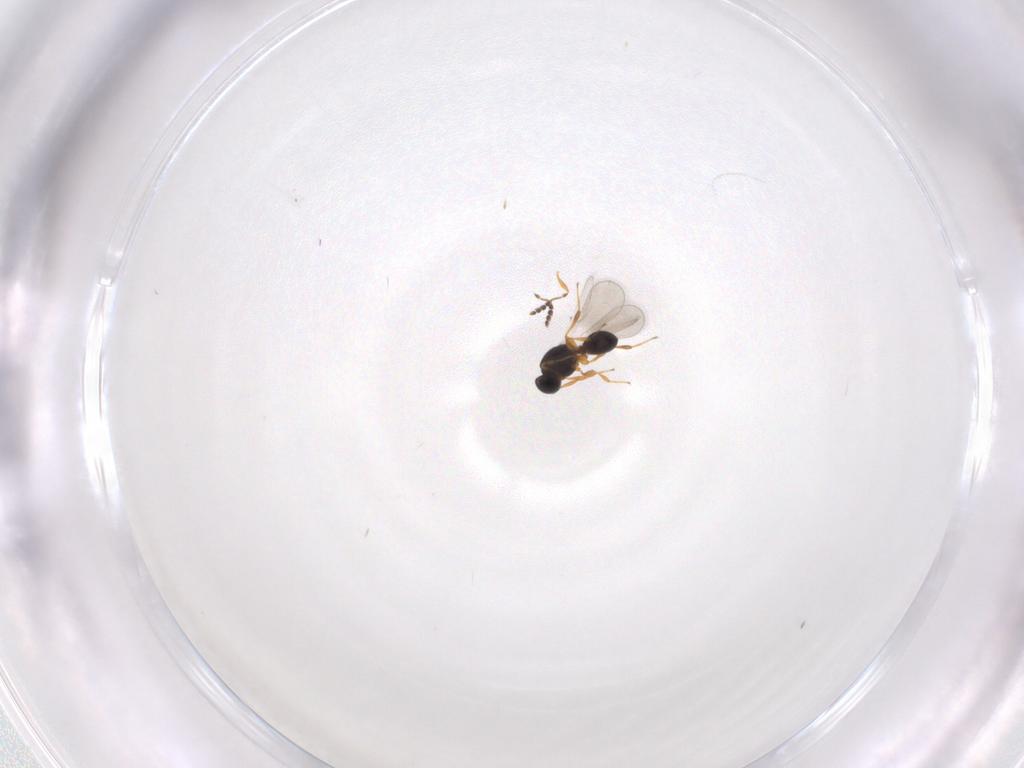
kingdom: Animalia
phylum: Arthropoda
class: Insecta
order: Hymenoptera
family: Platygastridae
